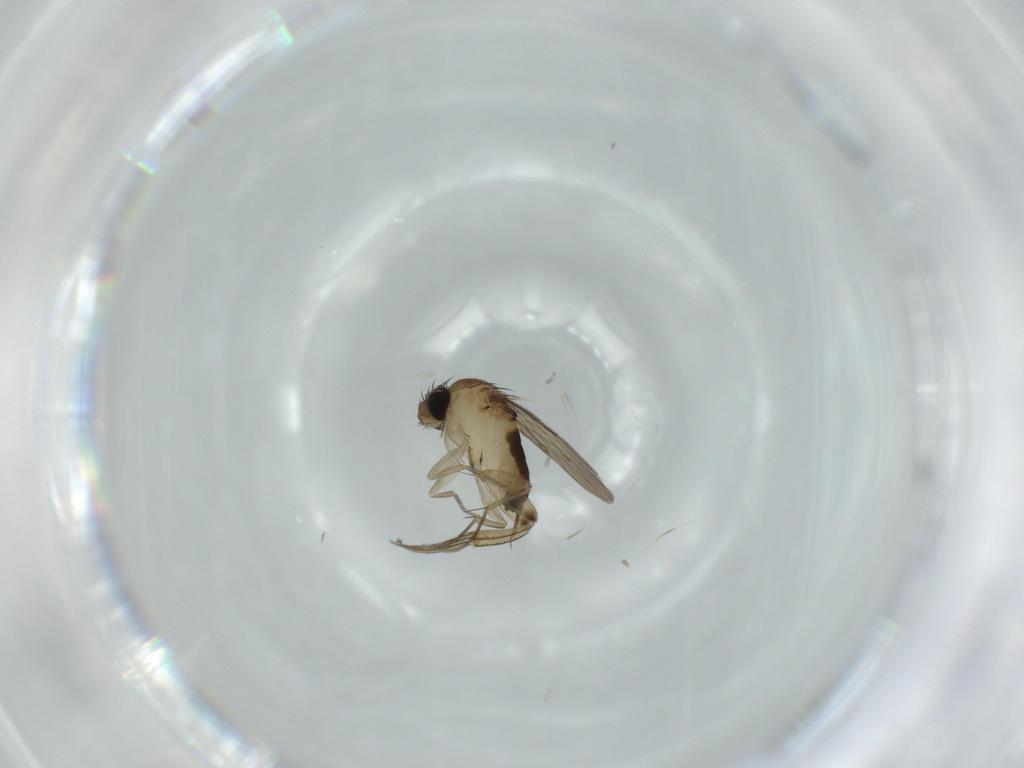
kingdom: Animalia
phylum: Arthropoda
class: Insecta
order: Diptera
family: Phoridae
